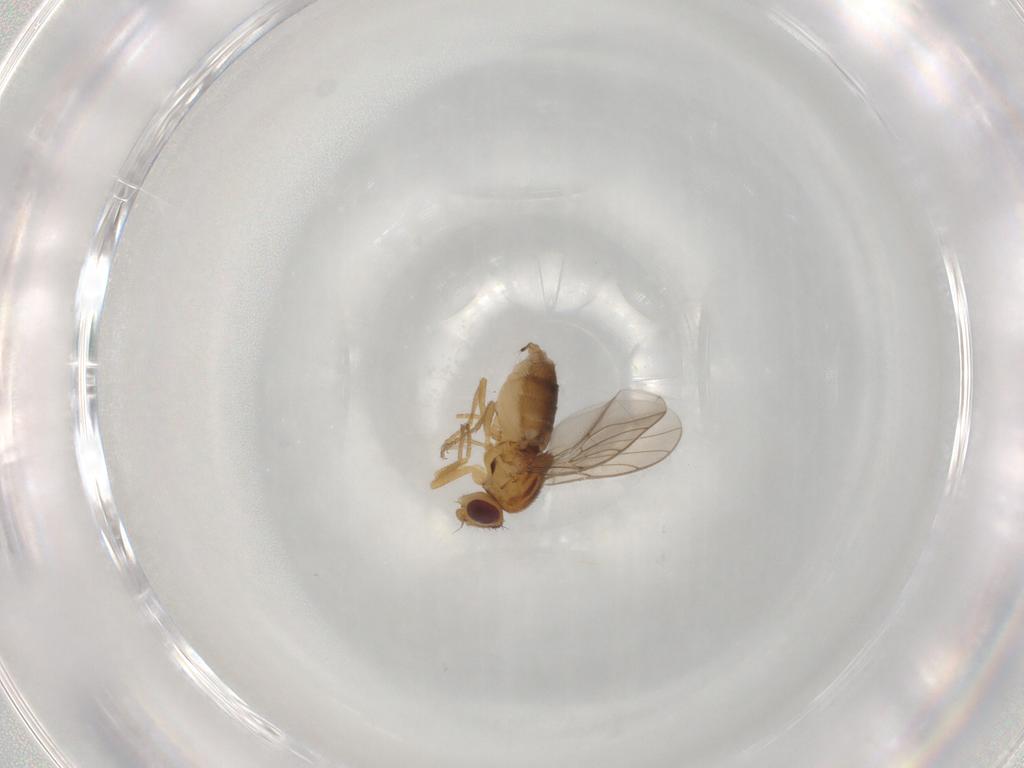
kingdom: Animalia
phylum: Arthropoda
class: Insecta
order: Diptera
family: Chloropidae
